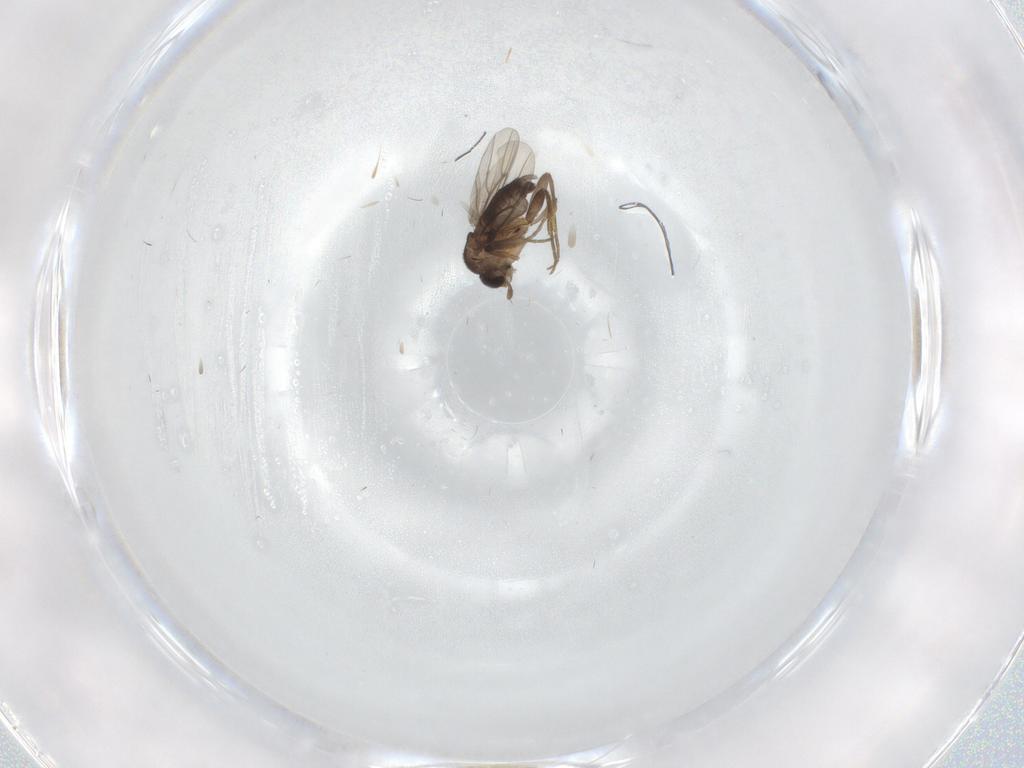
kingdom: Animalia
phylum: Arthropoda
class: Insecta
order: Diptera
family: Phoridae
